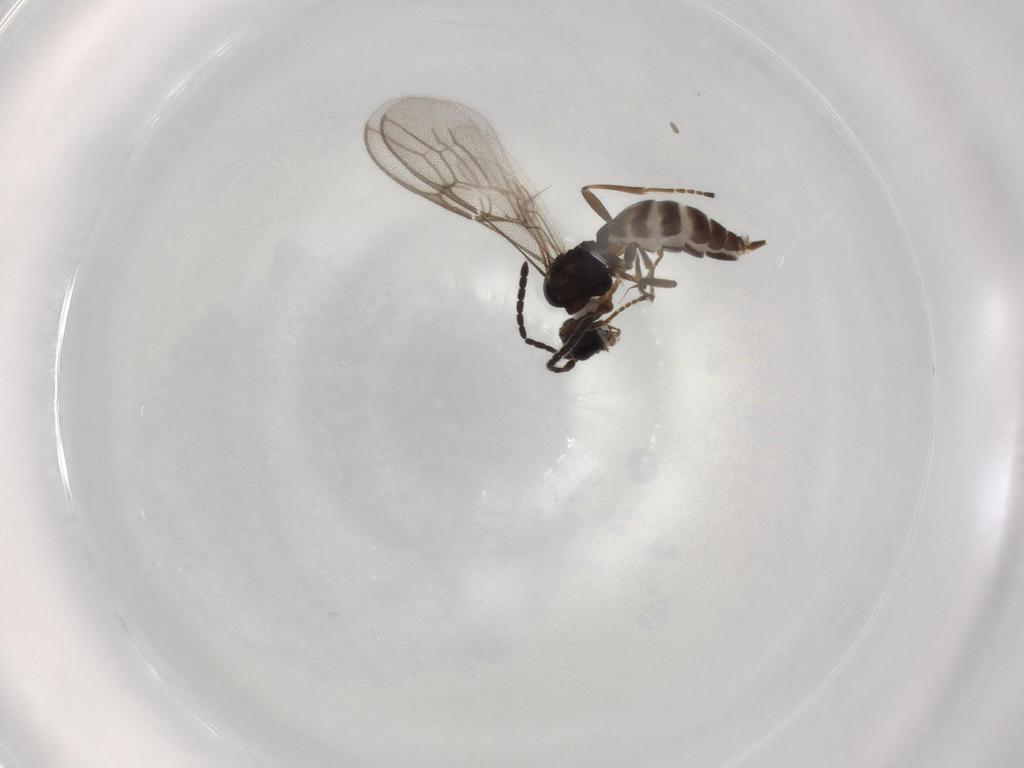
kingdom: Animalia
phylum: Arthropoda
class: Insecta
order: Hymenoptera
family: Braconidae
